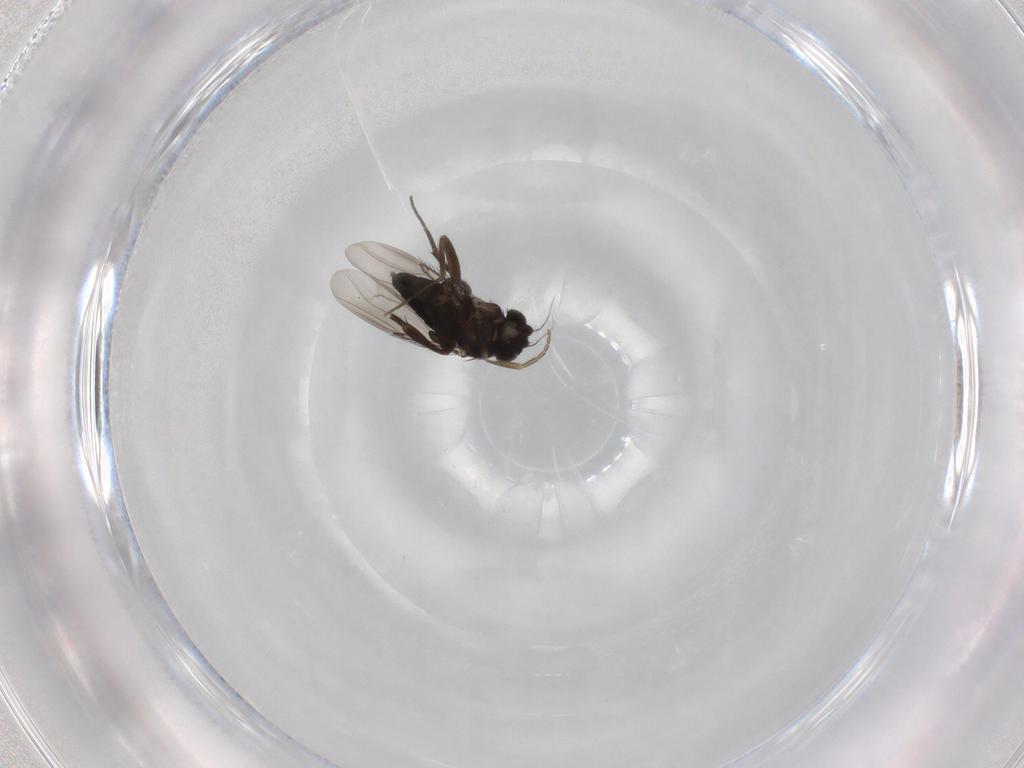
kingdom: Animalia
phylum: Arthropoda
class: Insecta
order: Diptera
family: Phoridae
